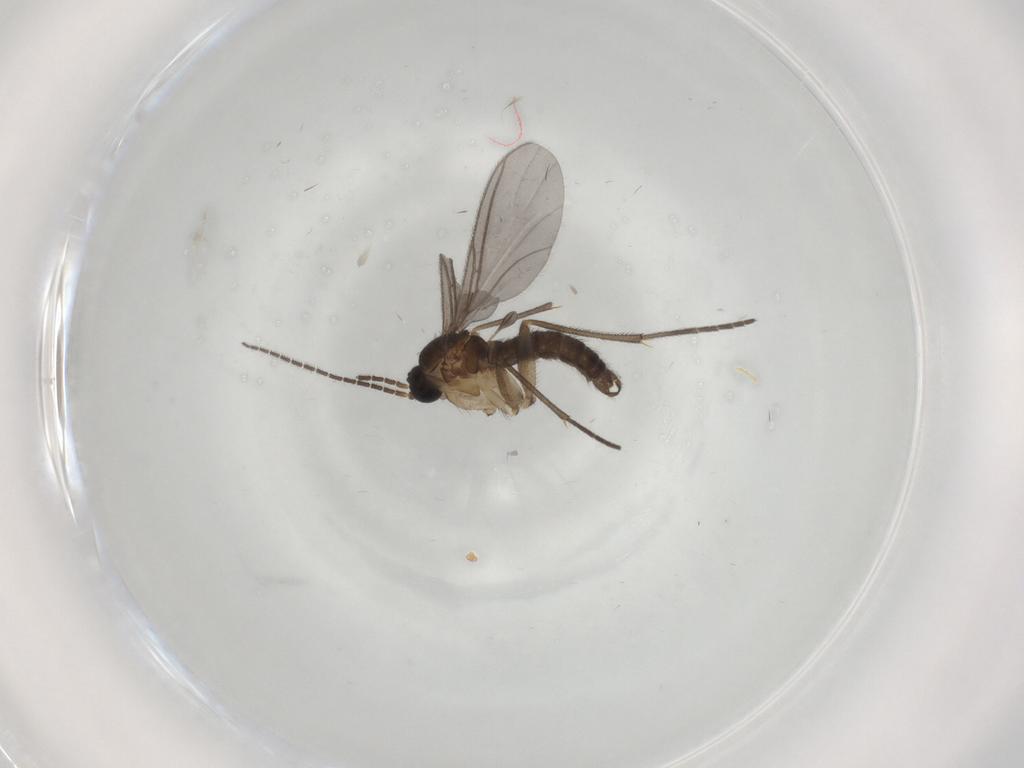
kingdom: Animalia
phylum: Arthropoda
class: Insecta
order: Diptera
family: Sciaridae
